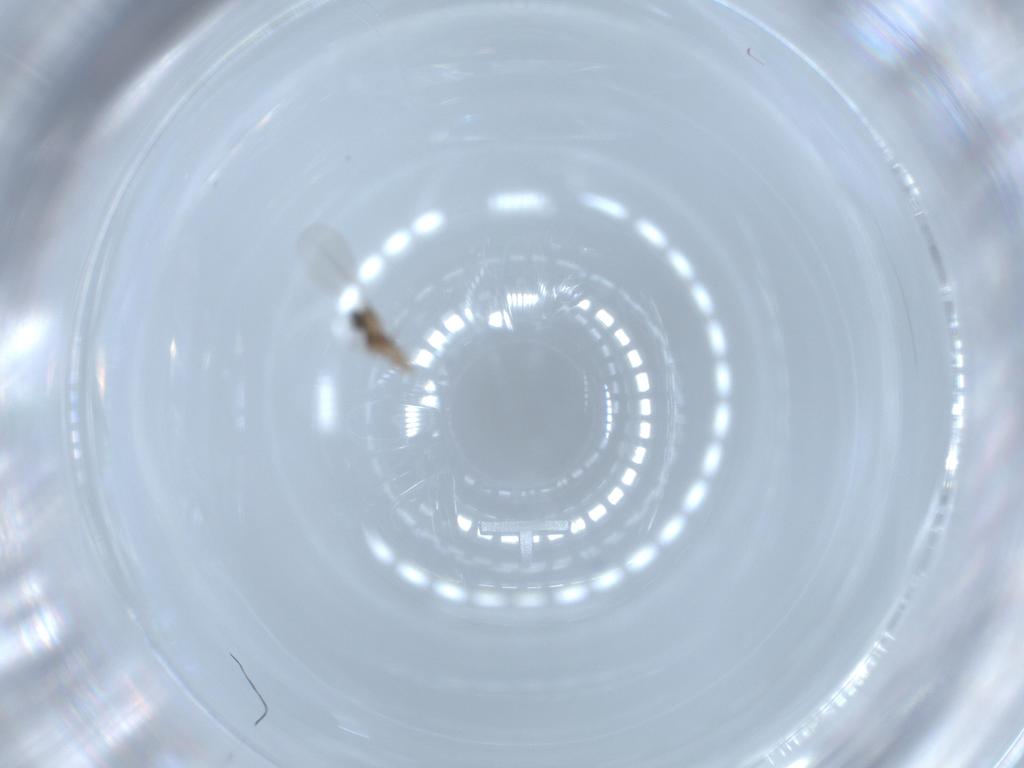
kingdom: Animalia
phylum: Arthropoda
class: Insecta
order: Diptera
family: Cecidomyiidae
